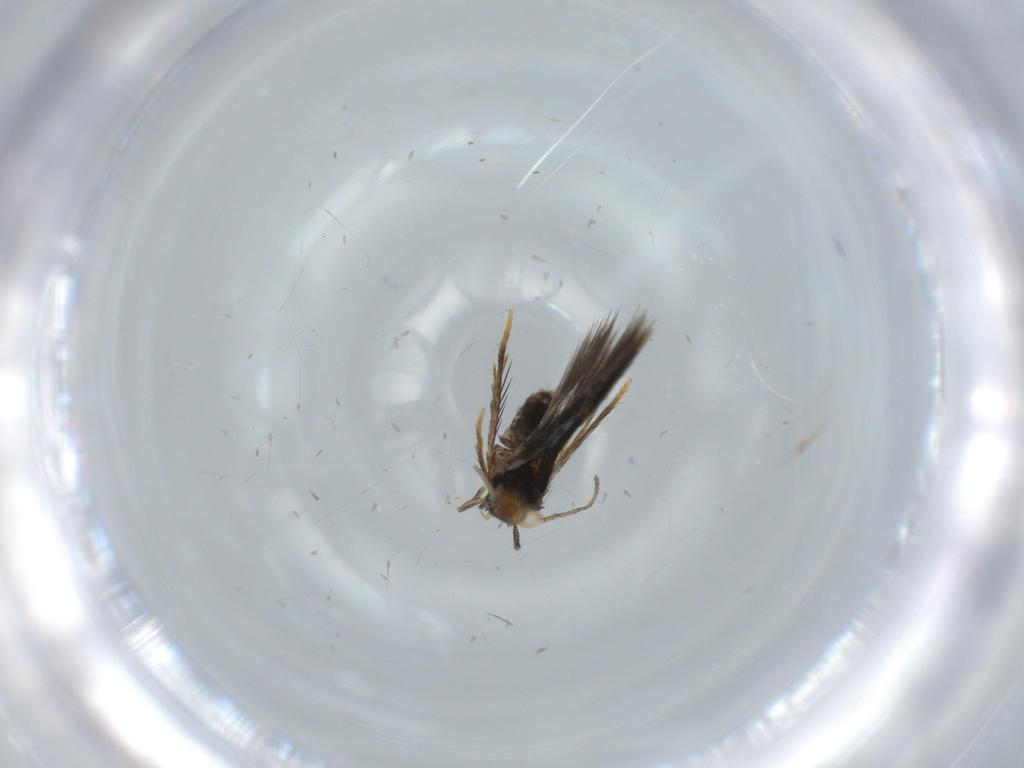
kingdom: Animalia
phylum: Arthropoda
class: Insecta
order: Lepidoptera
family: Nepticulidae
